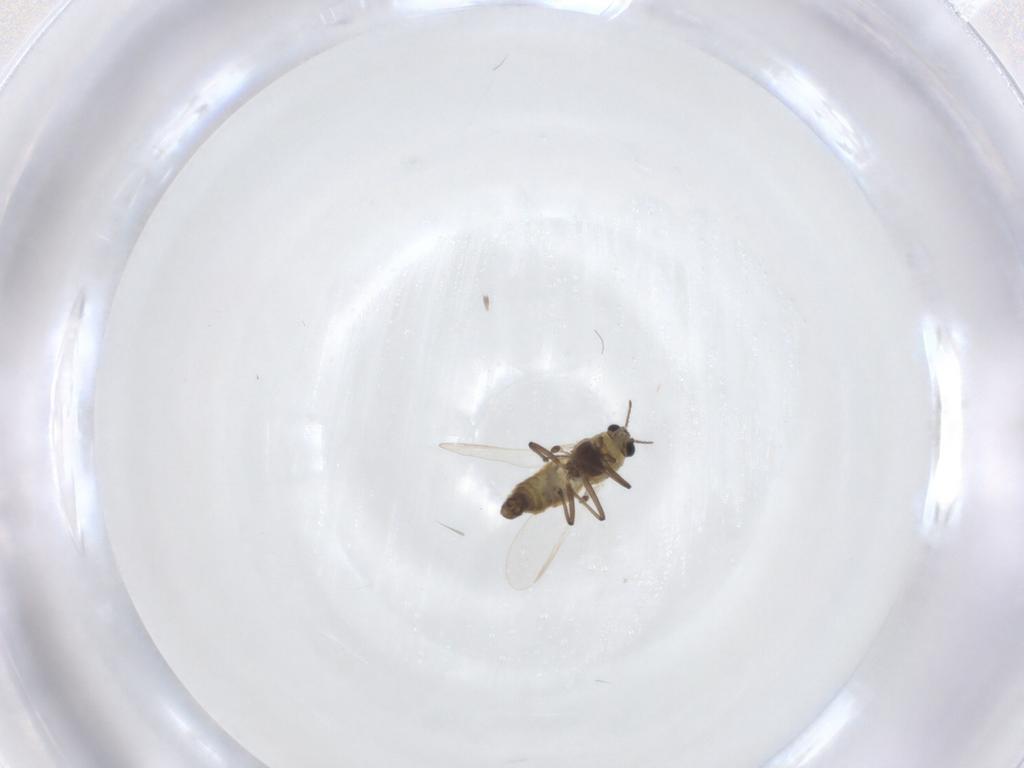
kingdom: Animalia
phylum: Arthropoda
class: Insecta
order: Diptera
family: Chironomidae
